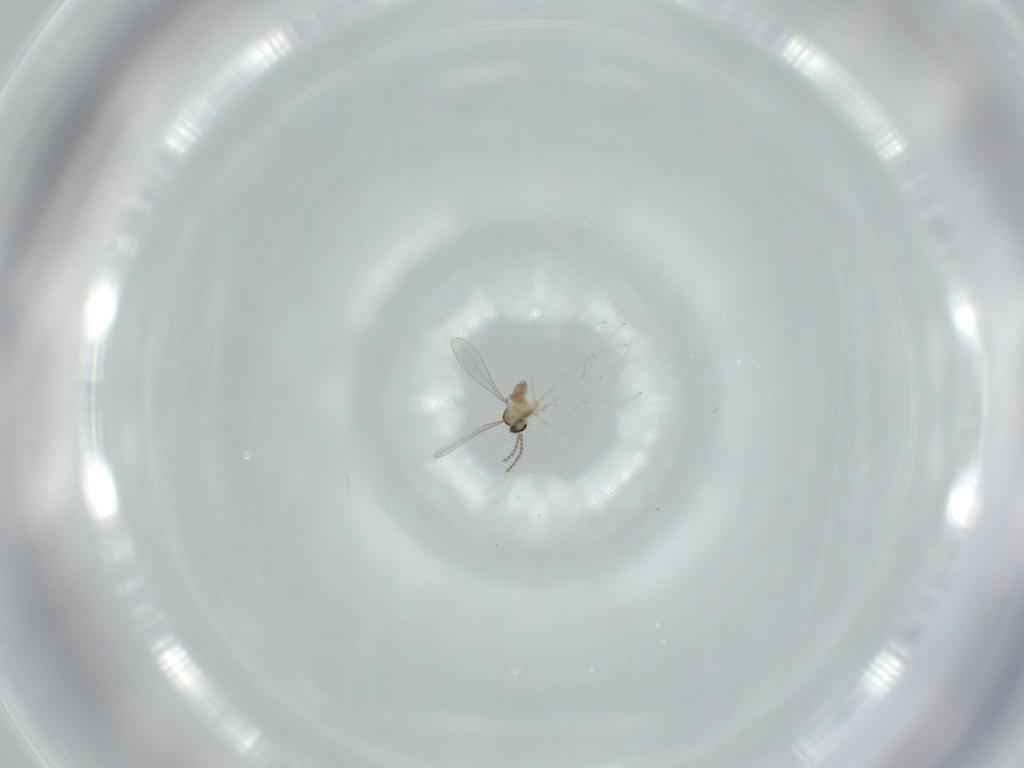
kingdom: Animalia
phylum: Arthropoda
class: Insecta
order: Diptera
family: Cecidomyiidae
